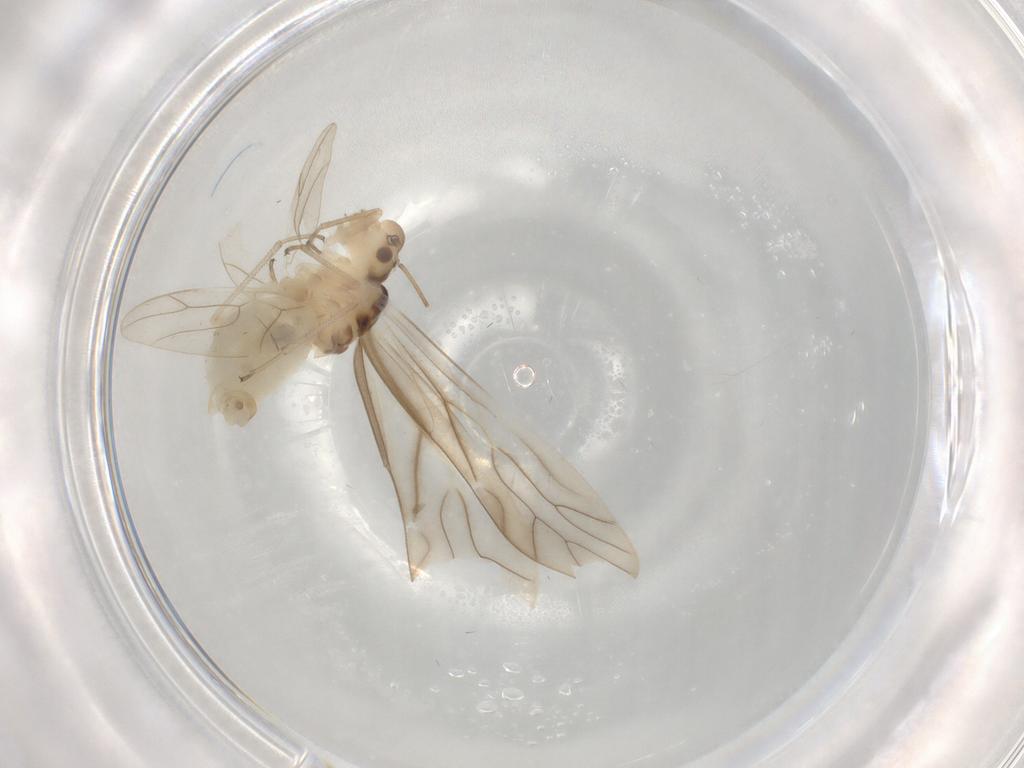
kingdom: Animalia
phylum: Arthropoda
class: Insecta
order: Psocodea
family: Caeciliusidae
